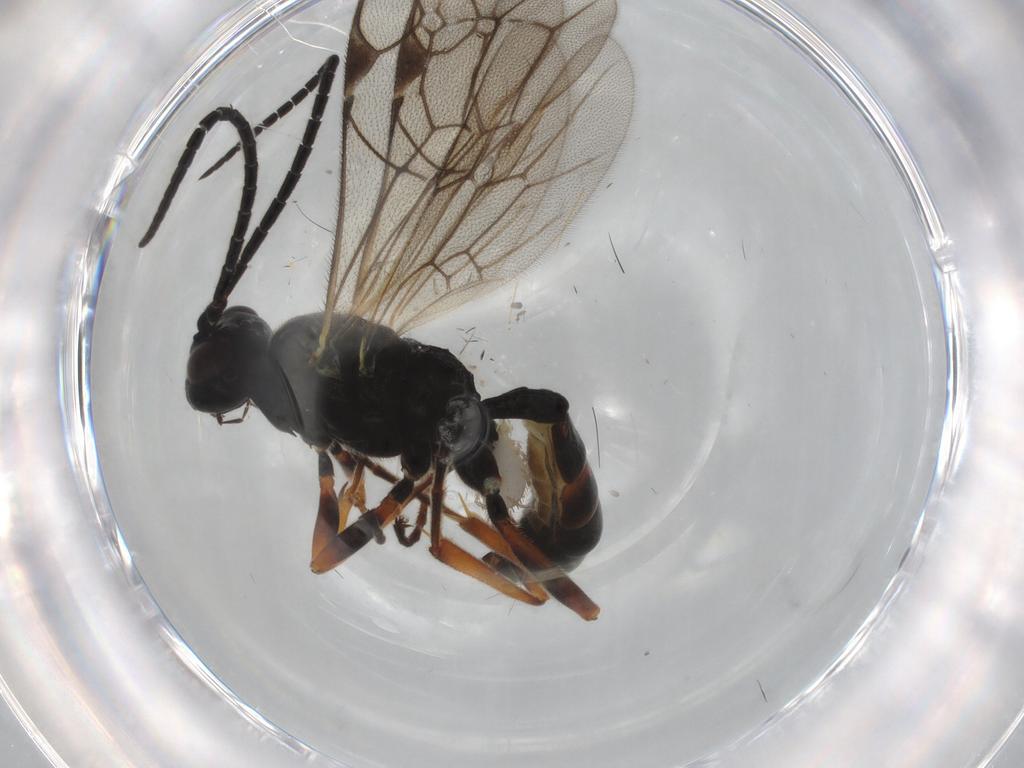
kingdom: Animalia
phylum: Arthropoda
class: Insecta
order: Hymenoptera
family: Ichneumonidae
